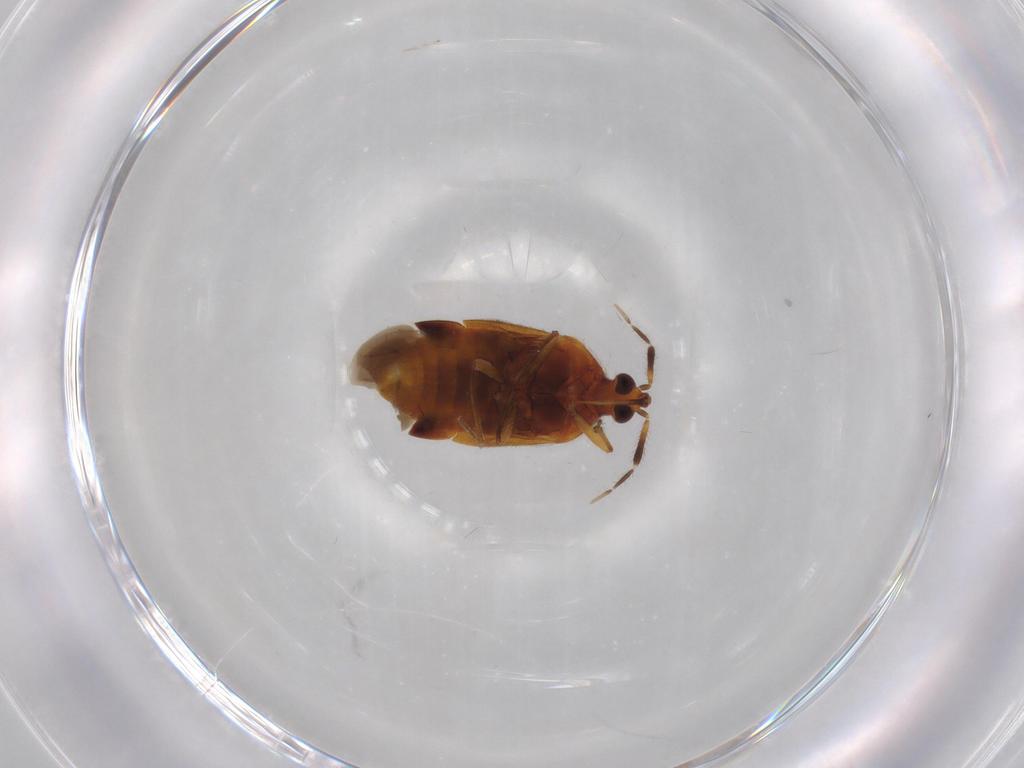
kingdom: Animalia
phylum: Arthropoda
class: Insecta
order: Hemiptera
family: Anthocoridae
